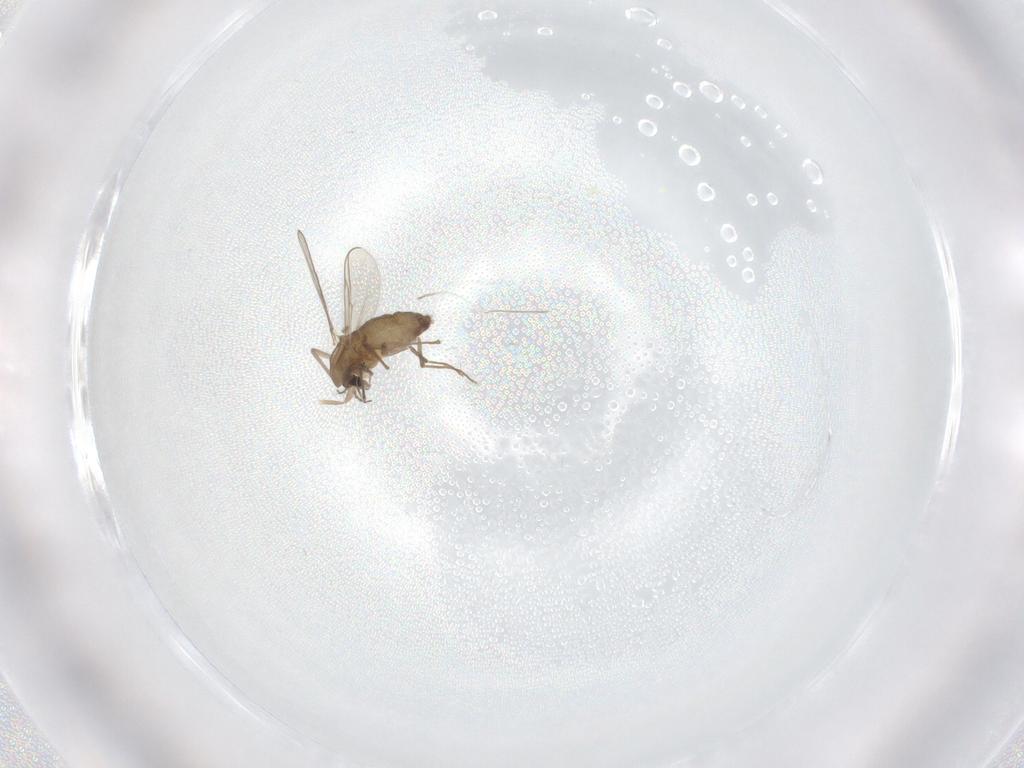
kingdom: Animalia
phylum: Arthropoda
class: Insecta
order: Diptera
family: Chironomidae
